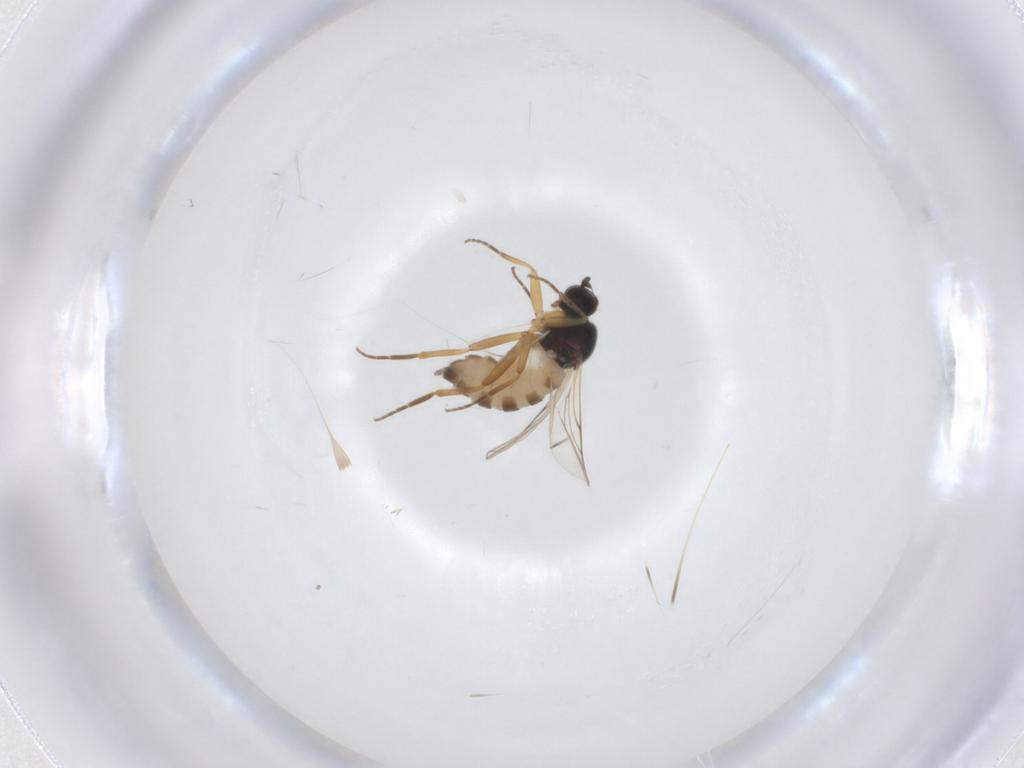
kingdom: Animalia
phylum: Arthropoda
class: Insecta
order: Diptera
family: Hybotidae
